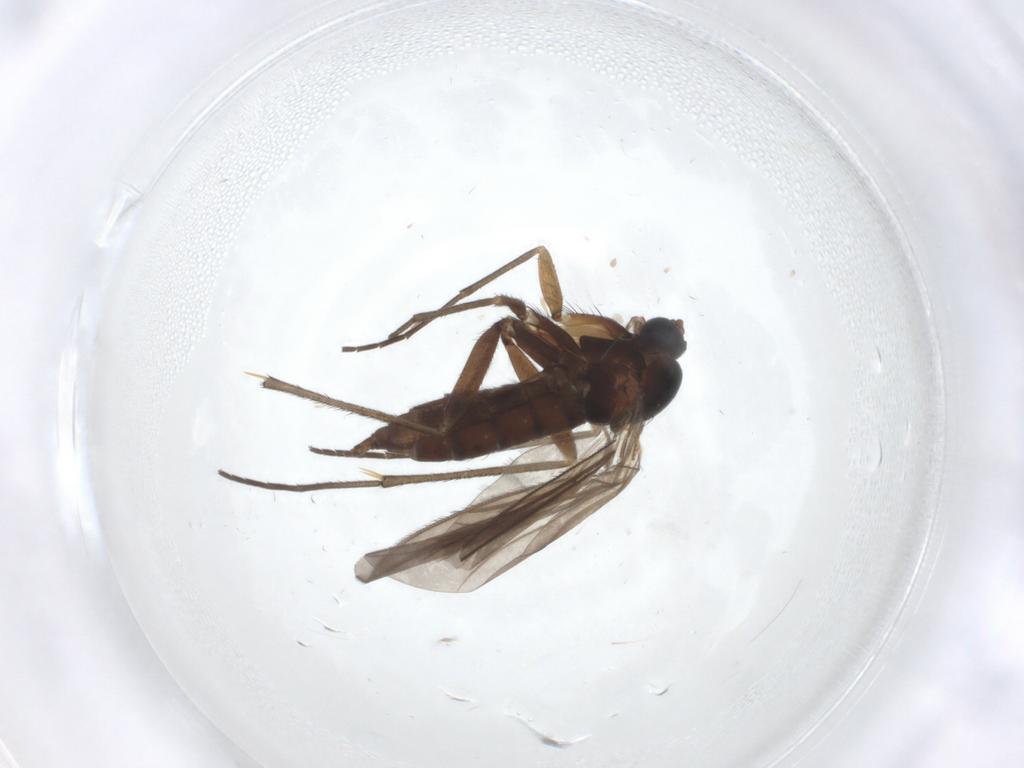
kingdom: Animalia
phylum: Arthropoda
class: Insecta
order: Diptera
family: Sciaridae
